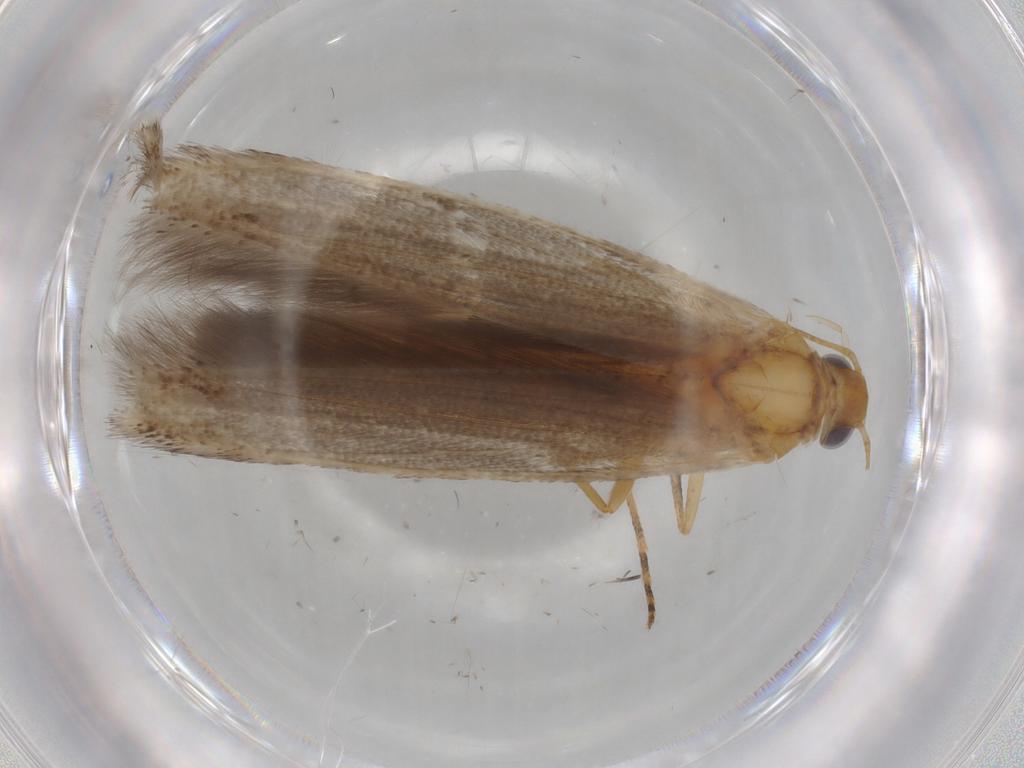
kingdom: Animalia
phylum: Arthropoda
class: Insecta
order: Lepidoptera
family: Batrachedridae
